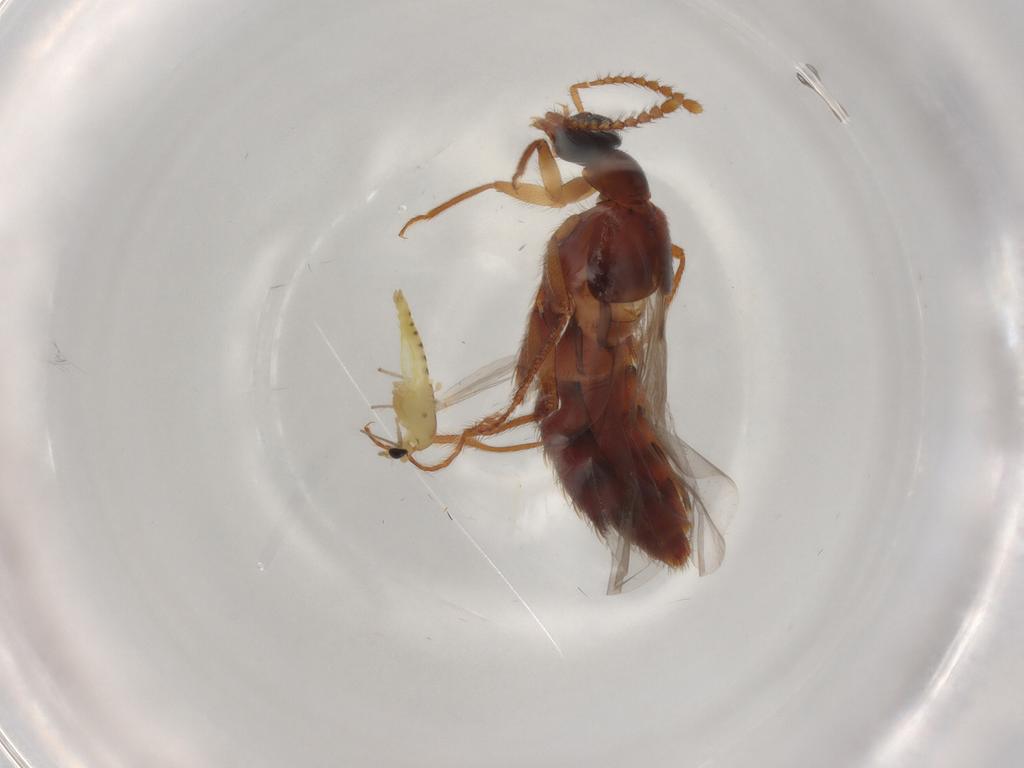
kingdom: Animalia
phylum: Arthropoda
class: Insecta
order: Diptera
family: Chironomidae
